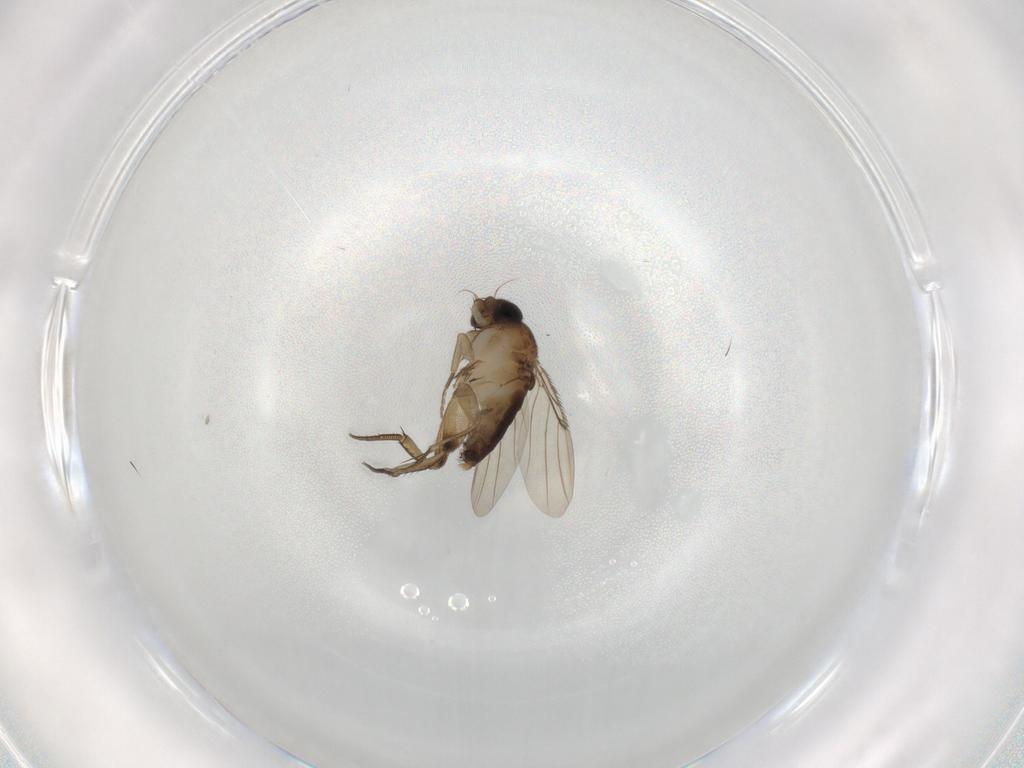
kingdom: Animalia
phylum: Arthropoda
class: Insecta
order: Diptera
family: Phoridae
